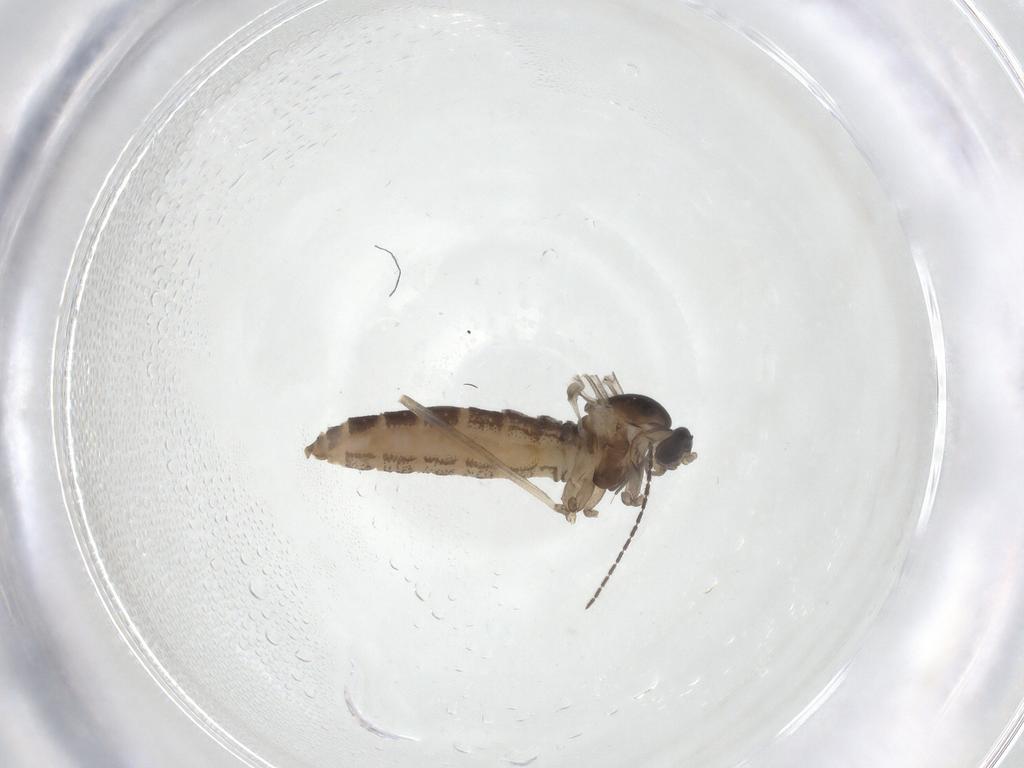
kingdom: Animalia
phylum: Arthropoda
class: Insecta
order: Diptera
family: Sciaridae
